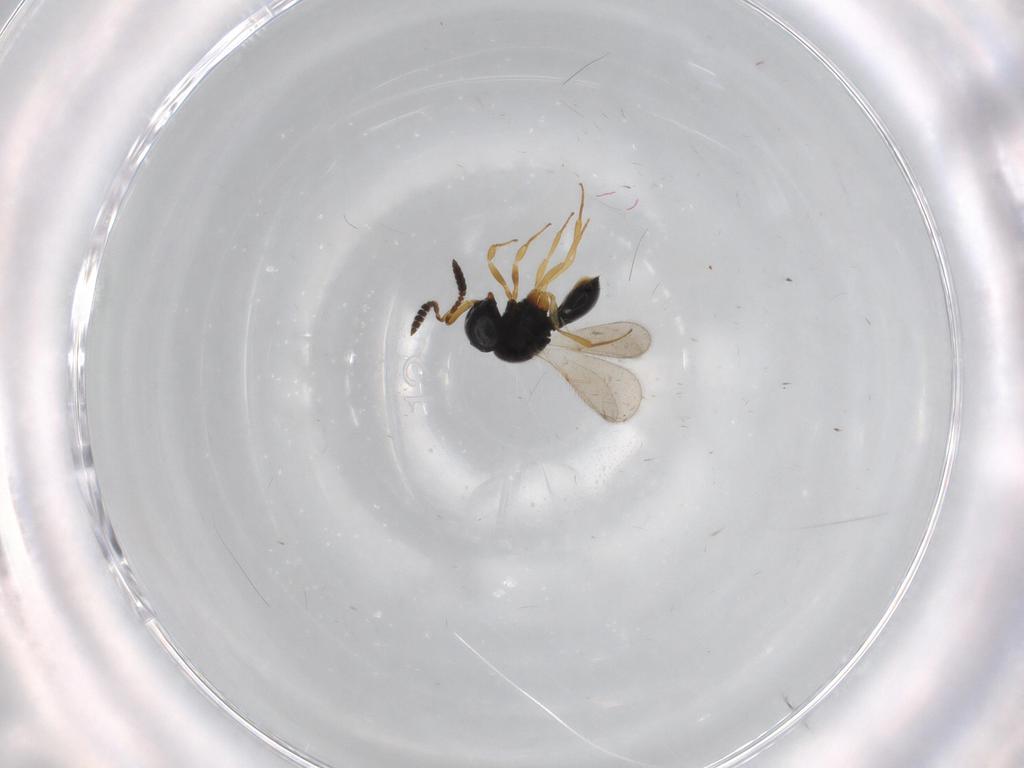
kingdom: Animalia
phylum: Arthropoda
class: Insecta
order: Hymenoptera
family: Scelionidae
